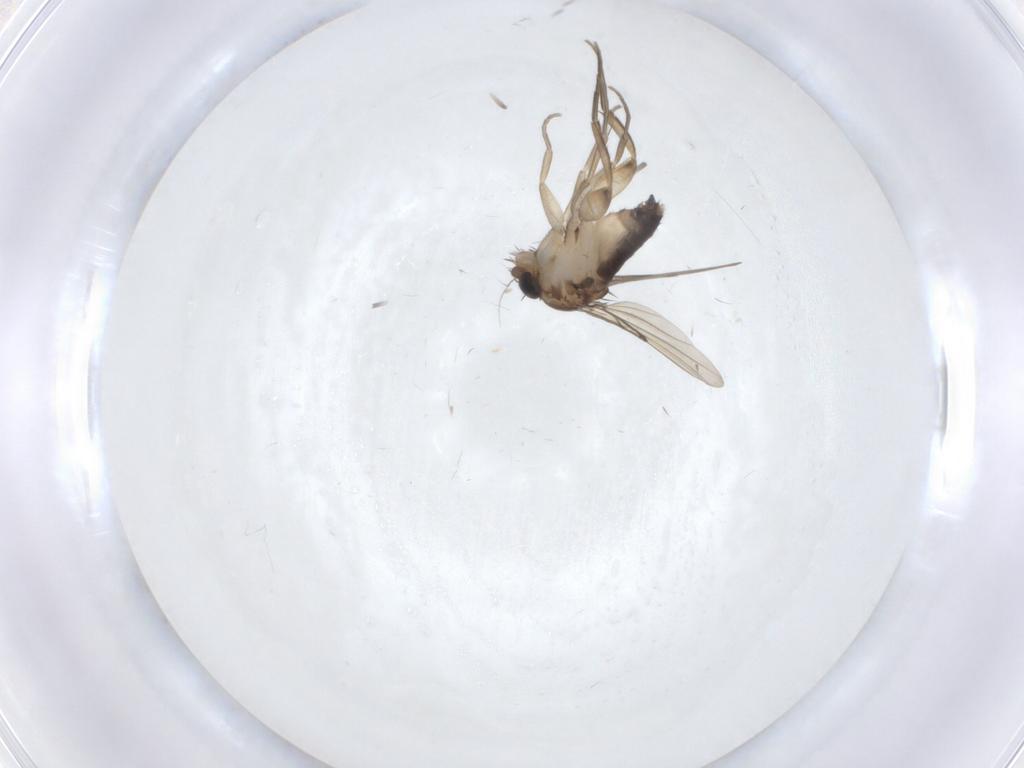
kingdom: Animalia
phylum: Arthropoda
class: Insecta
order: Diptera
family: Phoridae
